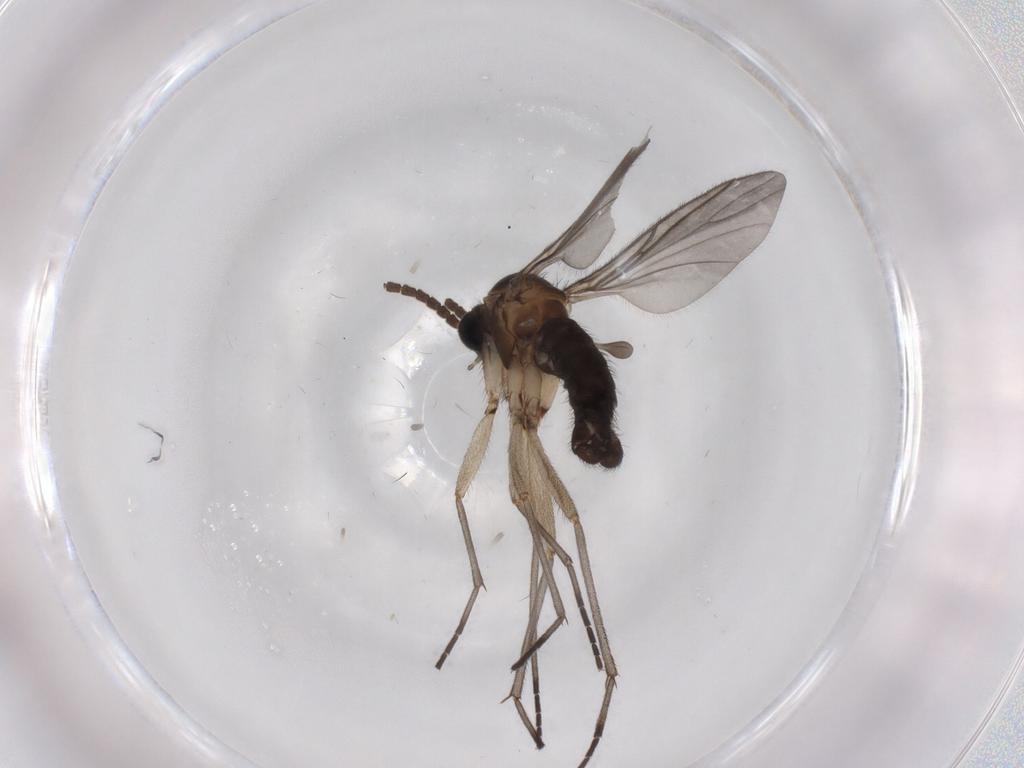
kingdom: Animalia
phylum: Arthropoda
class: Insecta
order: Diptera
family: Sciaridae
